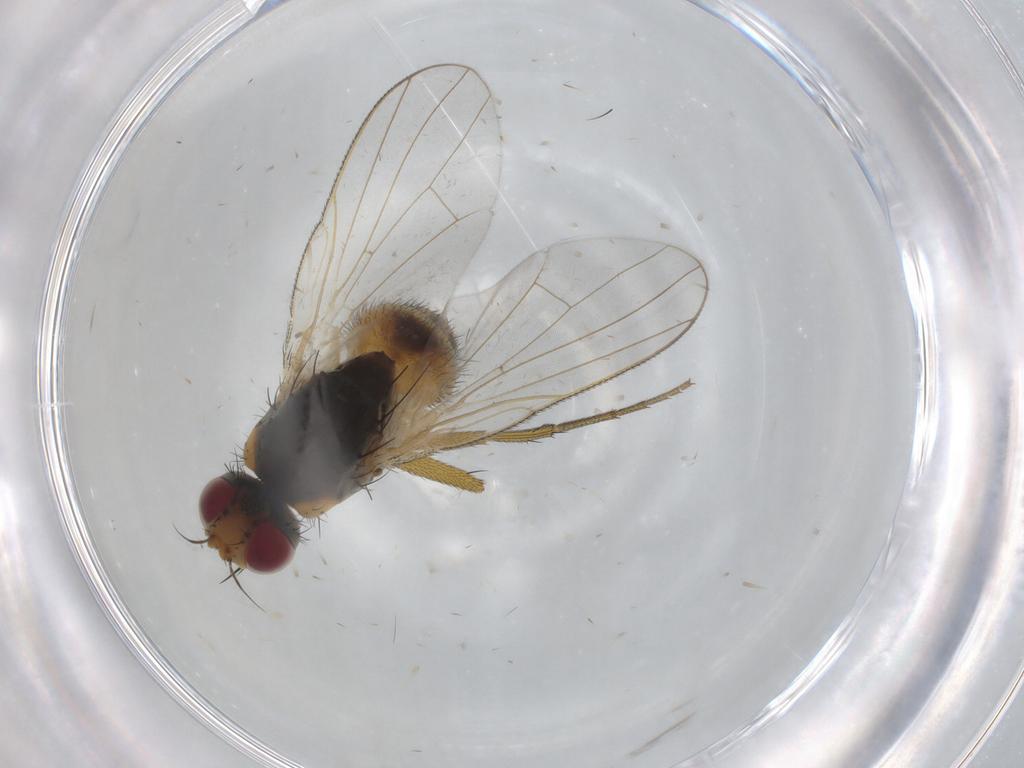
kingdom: Animalia
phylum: Arthropoda
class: Insecta
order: Diptera
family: Muscidae
